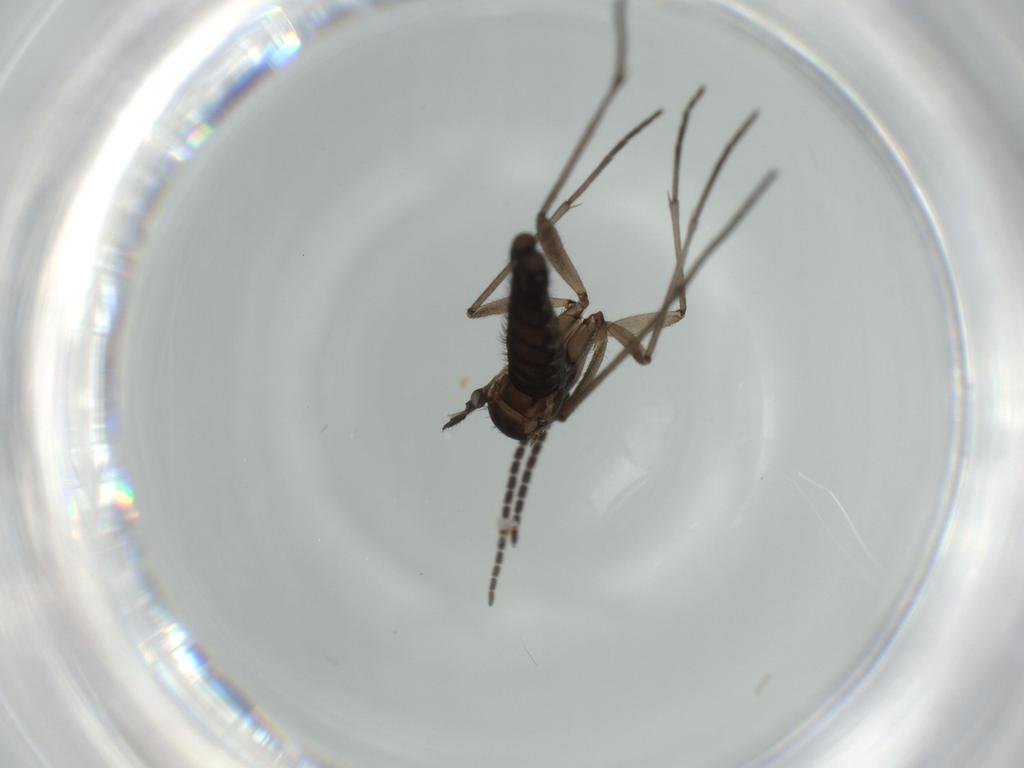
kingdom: Animalia
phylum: Arthropoda
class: Insecta
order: Diptera
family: Sciaridae
